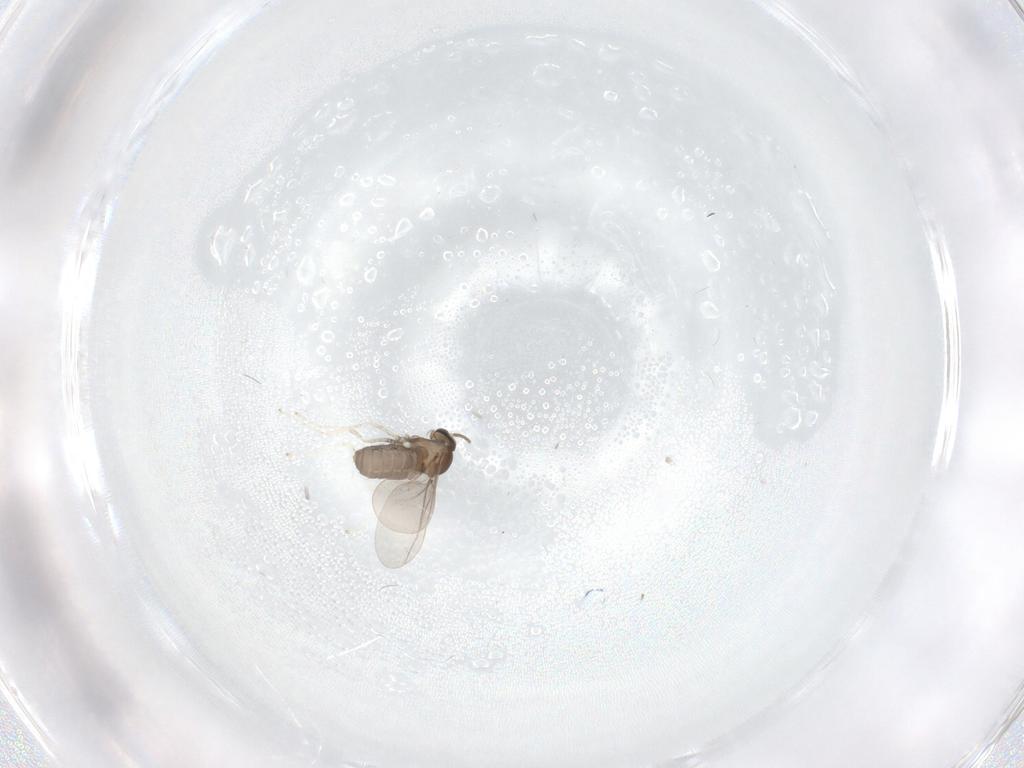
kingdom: Animalia
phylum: Arthropoda
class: Insecta
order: Diptera
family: Cecidomyiidae
